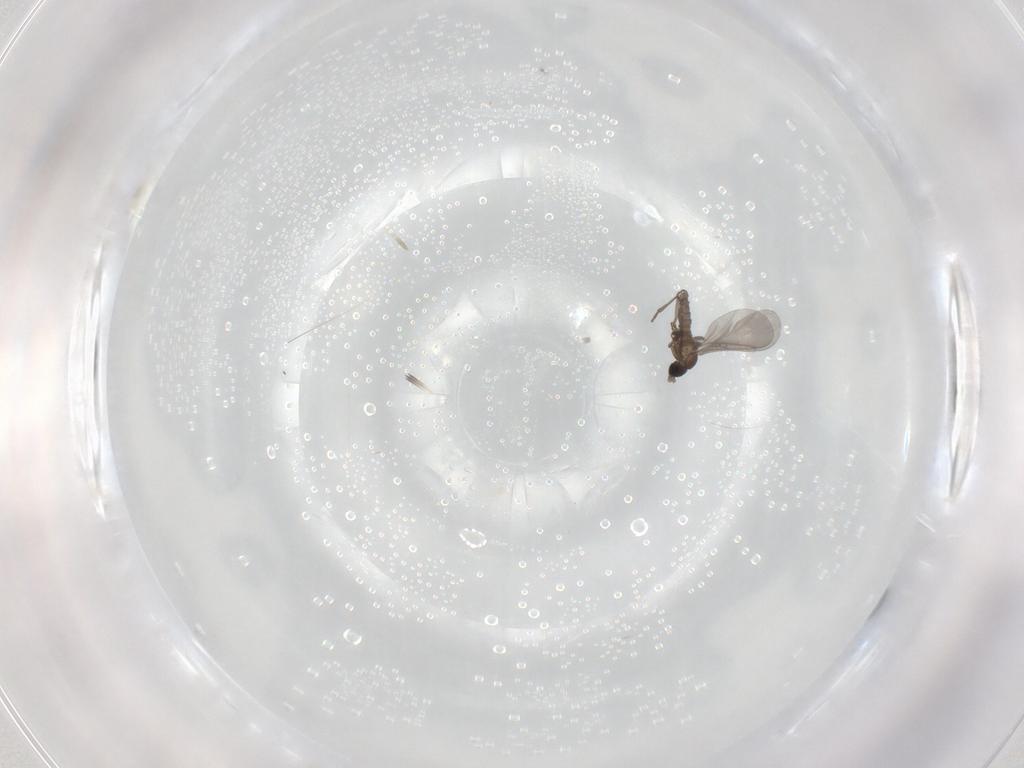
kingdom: Animalia
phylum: Arthropoda
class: Insecta
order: Diptera
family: Sciaridae
